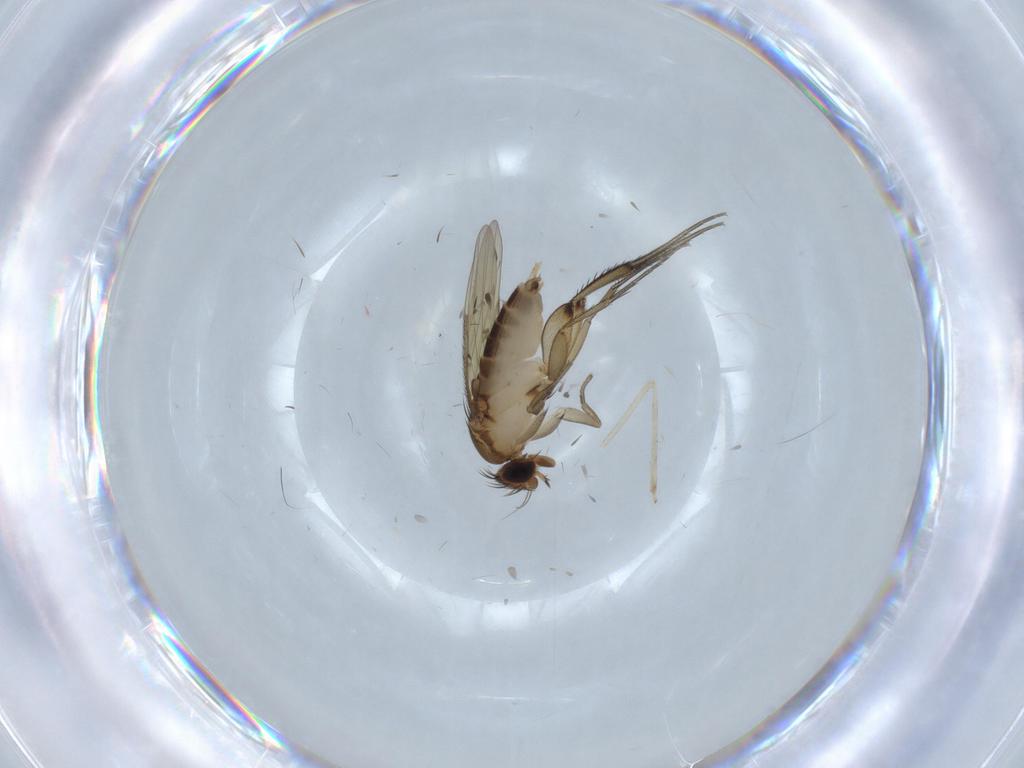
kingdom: Animalia
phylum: Arthropoda
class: Insecta
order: Diptera
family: Phoridae
